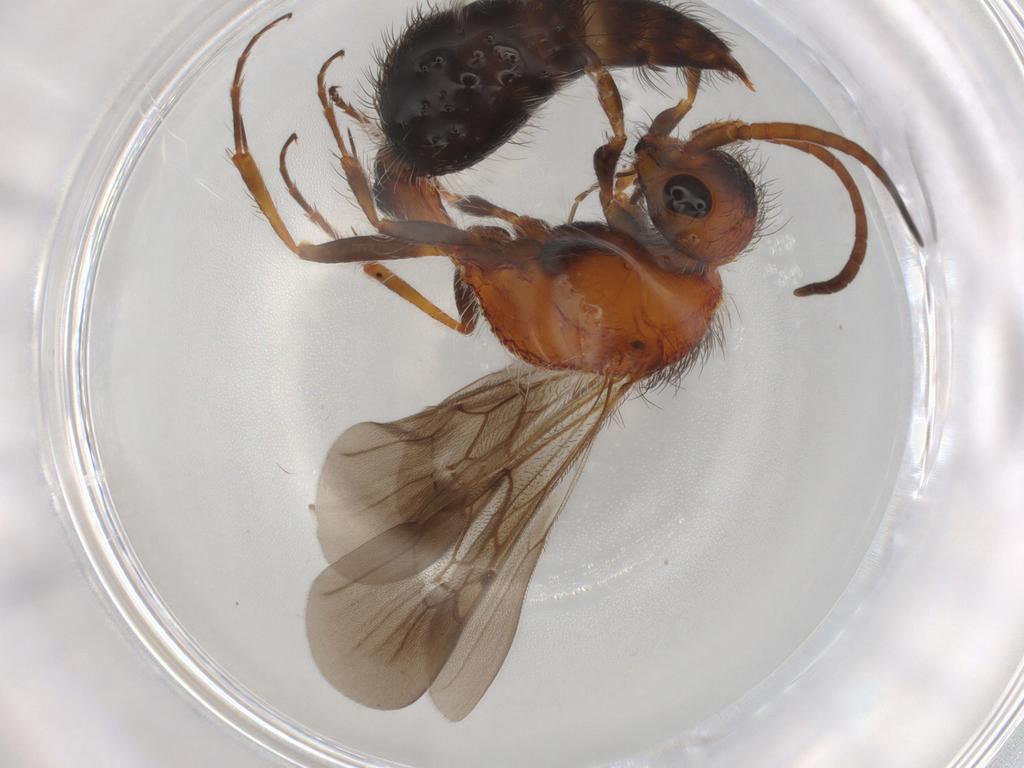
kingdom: Animalia
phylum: Arthropoda
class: Insecta
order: Hymenoptera
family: Mutillidae
